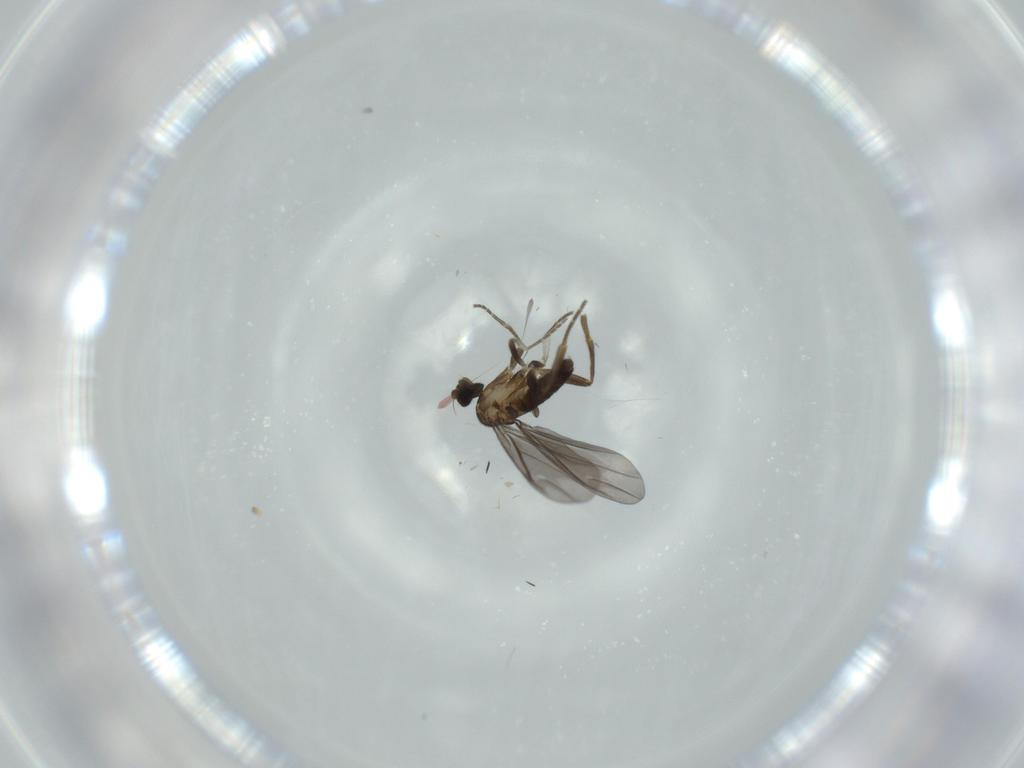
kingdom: Animalia
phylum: Arthropoda
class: Insecta
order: Diptera
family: Phoridae
